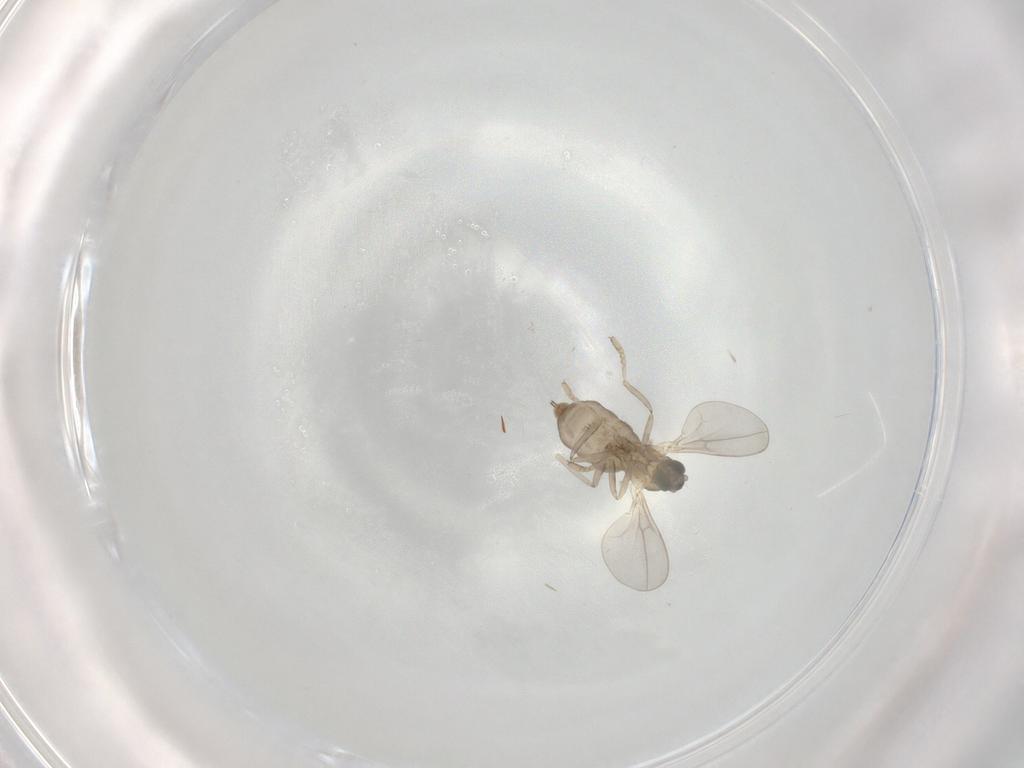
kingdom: Animalia
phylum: Arthropoda
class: Insecta
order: Diptera
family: Cecidomyiidae
